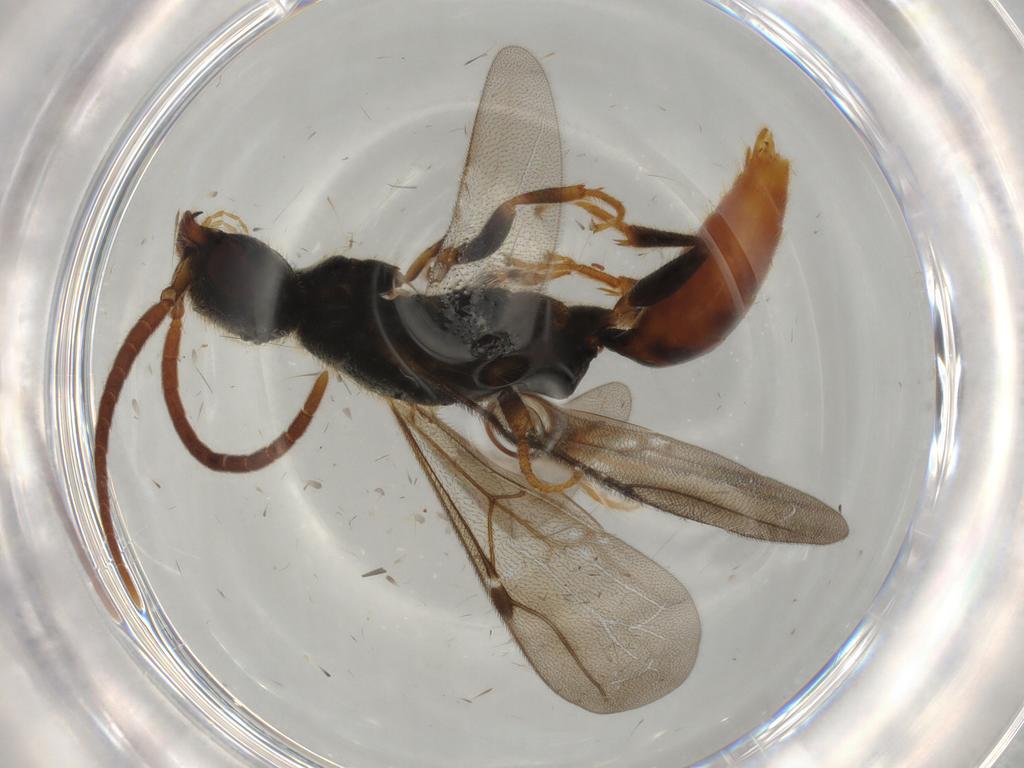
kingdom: Animalia
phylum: Arthropoda
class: Insecta
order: Hymenoptera
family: Bethylidae
